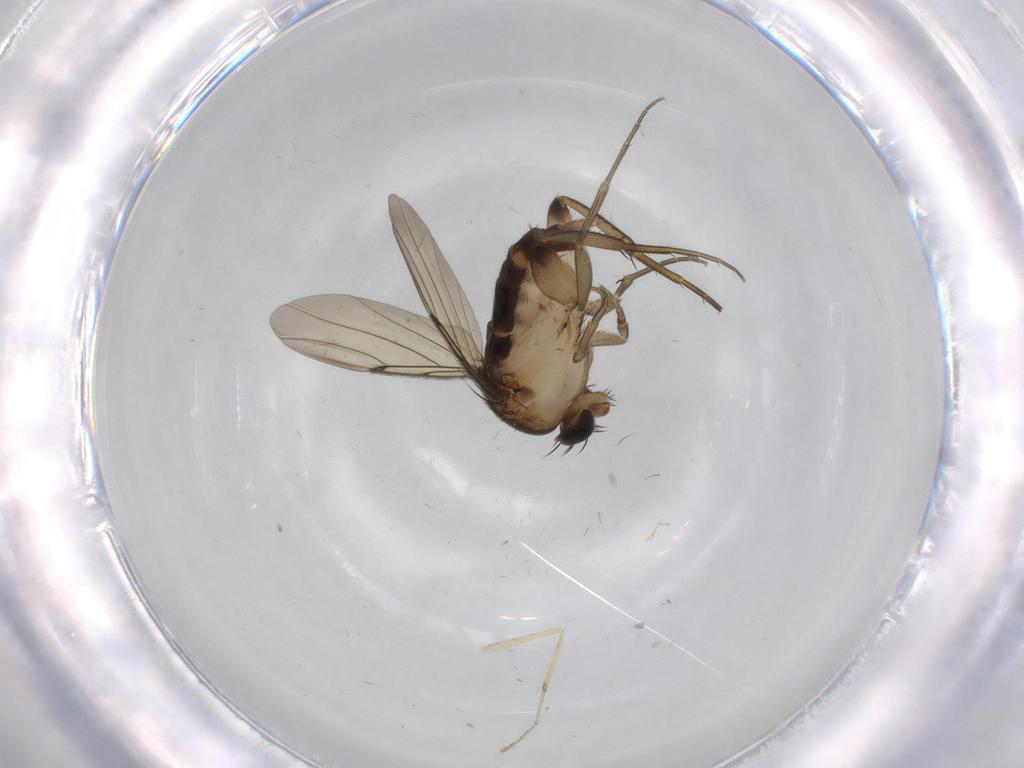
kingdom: Animalia
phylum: Arthropoda
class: Insecta
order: Diptera
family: Phoridae
